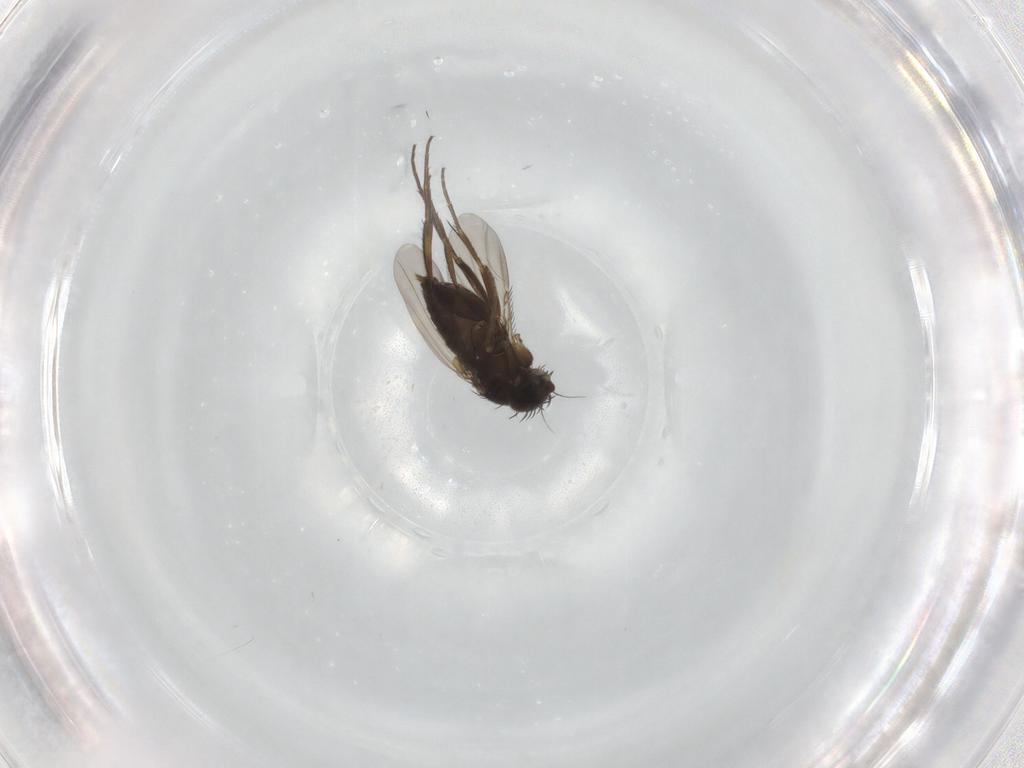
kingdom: Animalia
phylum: Arthropoda
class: Insecta
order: Diptera
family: Phoridae
